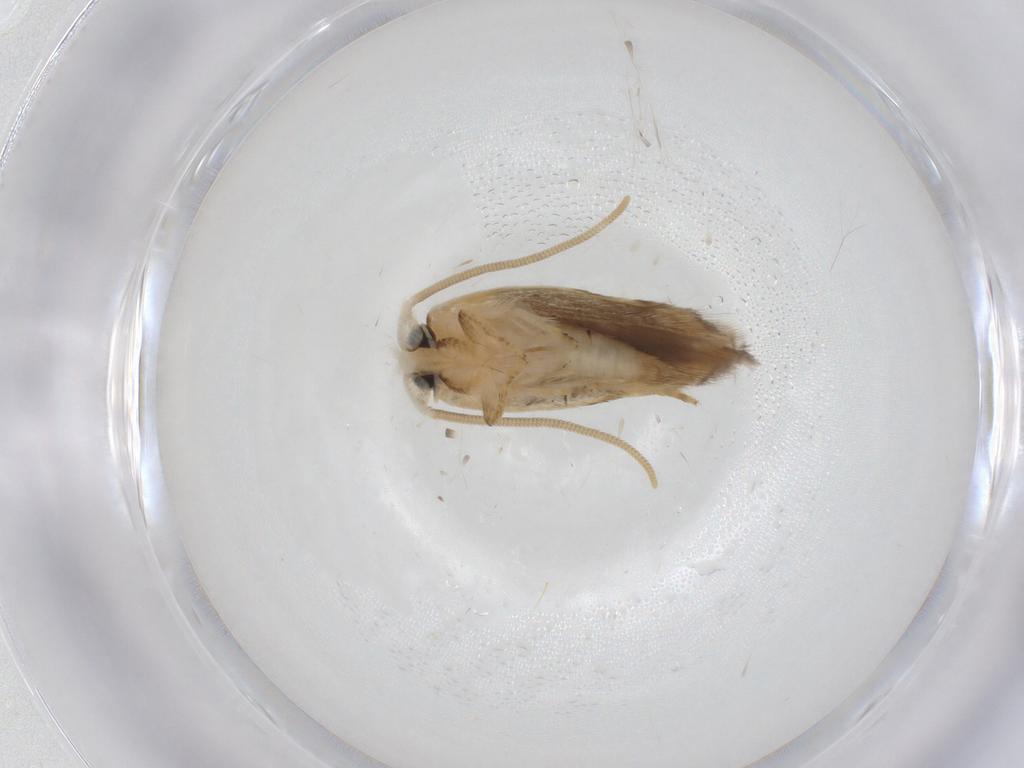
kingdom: Animalia
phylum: Arthropoda
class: Insecta
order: Lepidoptera
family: Opostegidae
